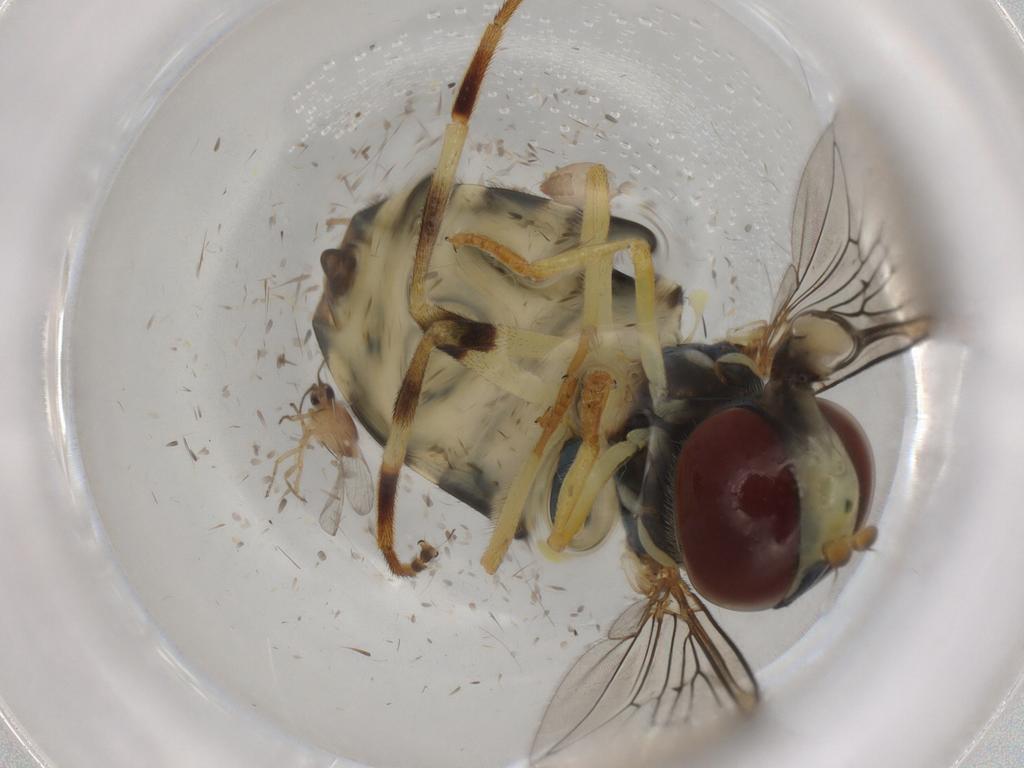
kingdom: Animalia
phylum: Arthropoda
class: Insecta
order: Diptera
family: Ceratopogonidae
